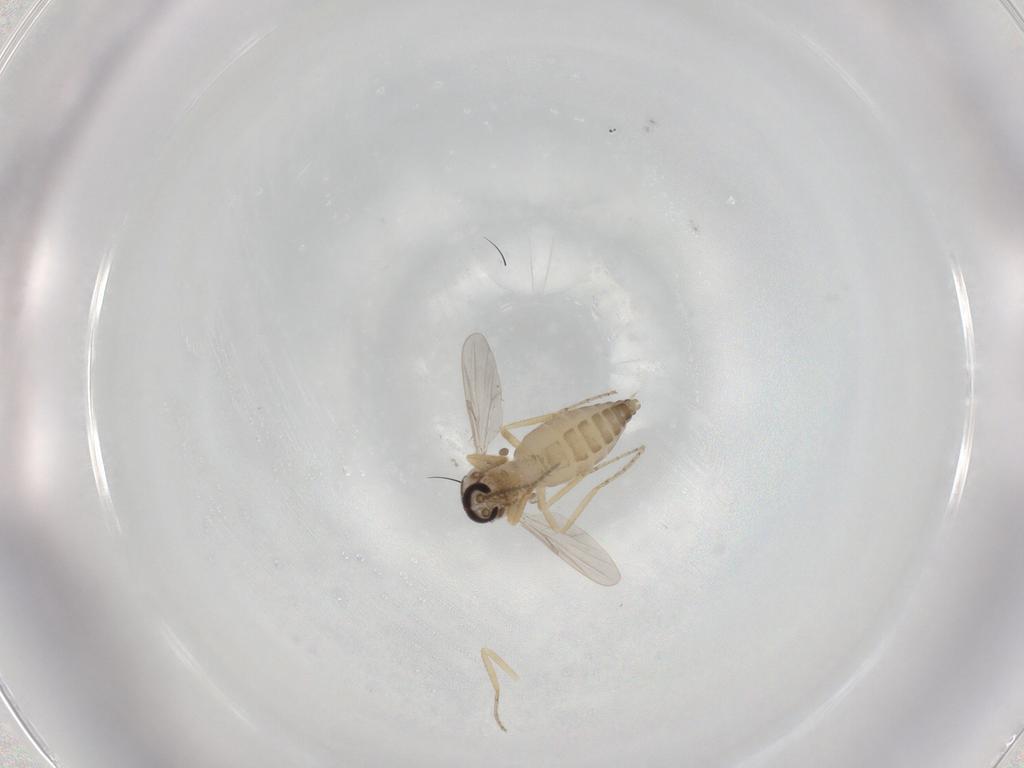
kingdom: Animalia
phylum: Arthropoda
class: Insecta
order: Diptera
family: Ceratopogonidae
